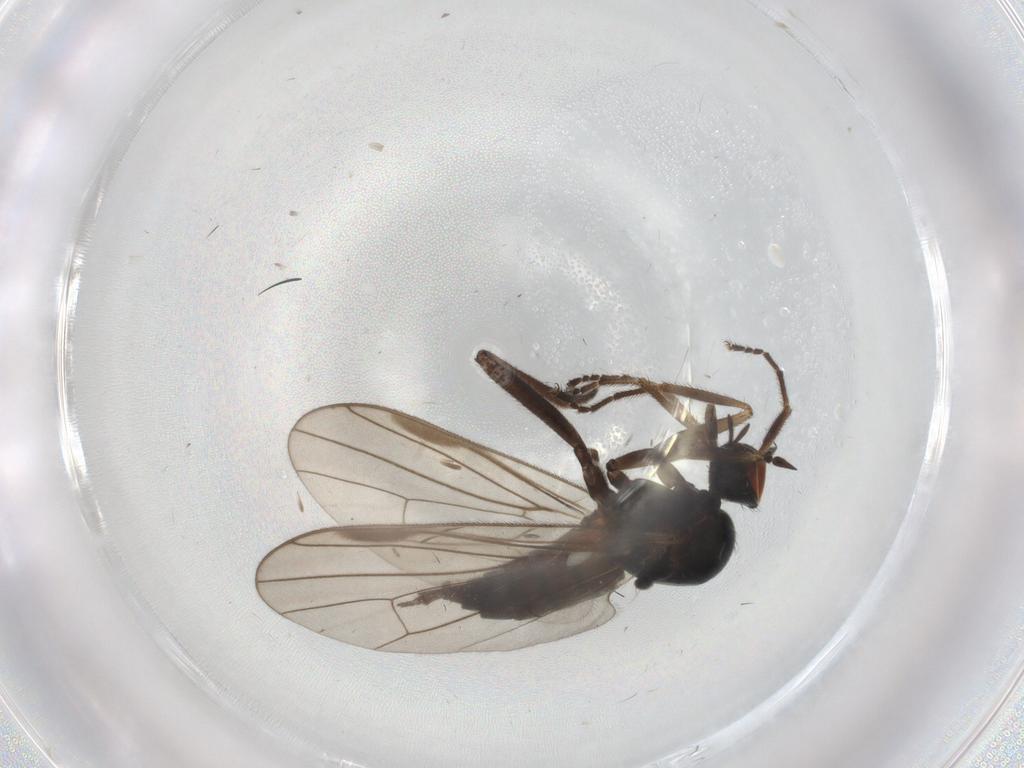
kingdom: Animalia
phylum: Arthropoda
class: Insecta
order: Diptera
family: Hybotidae
